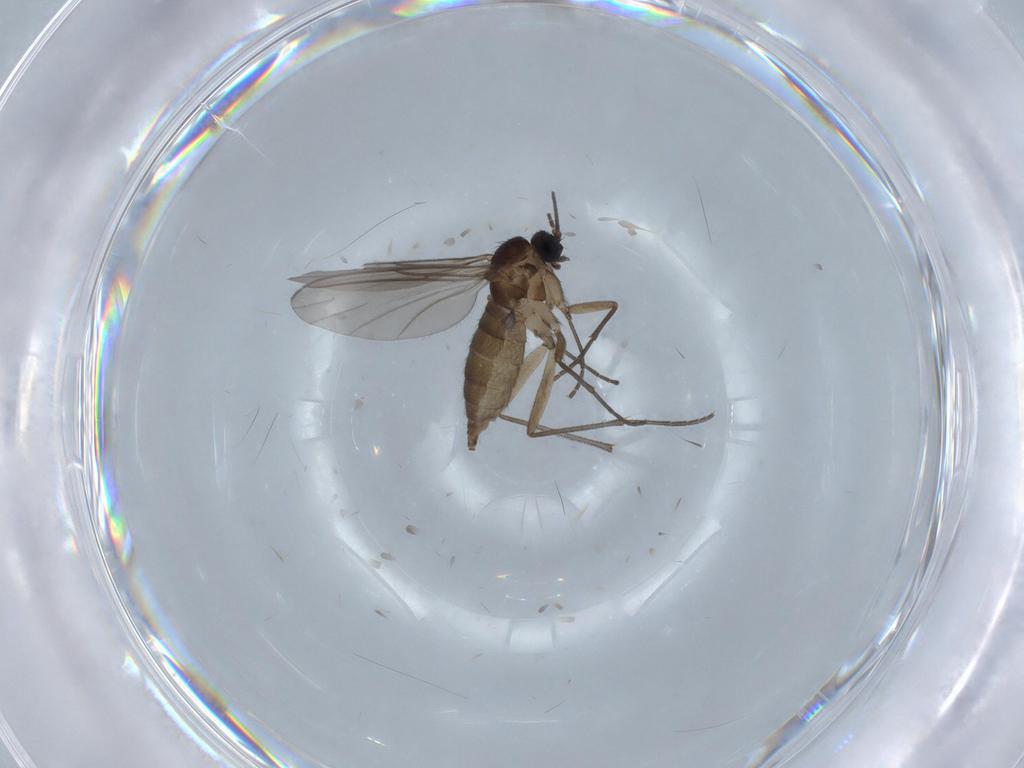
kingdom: Animalia
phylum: Arthropoda
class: Insecta
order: Diptera
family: Sciaridae
